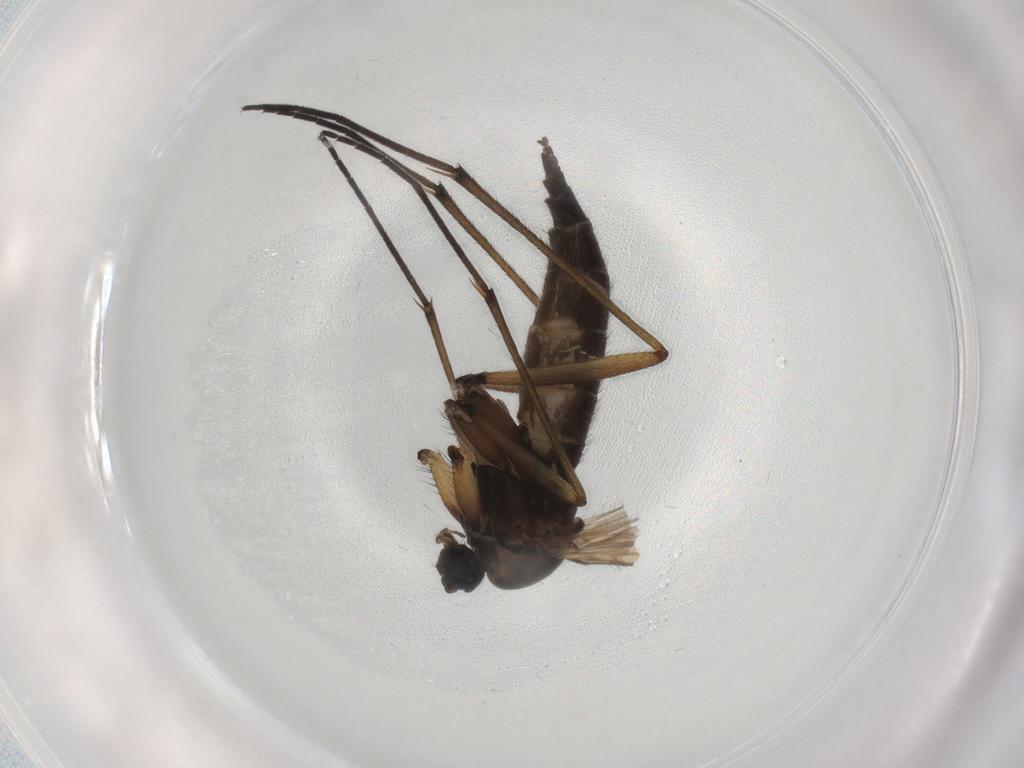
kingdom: Animalia
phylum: Arthropoda
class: Insecta
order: Diptera
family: Sciaridae
